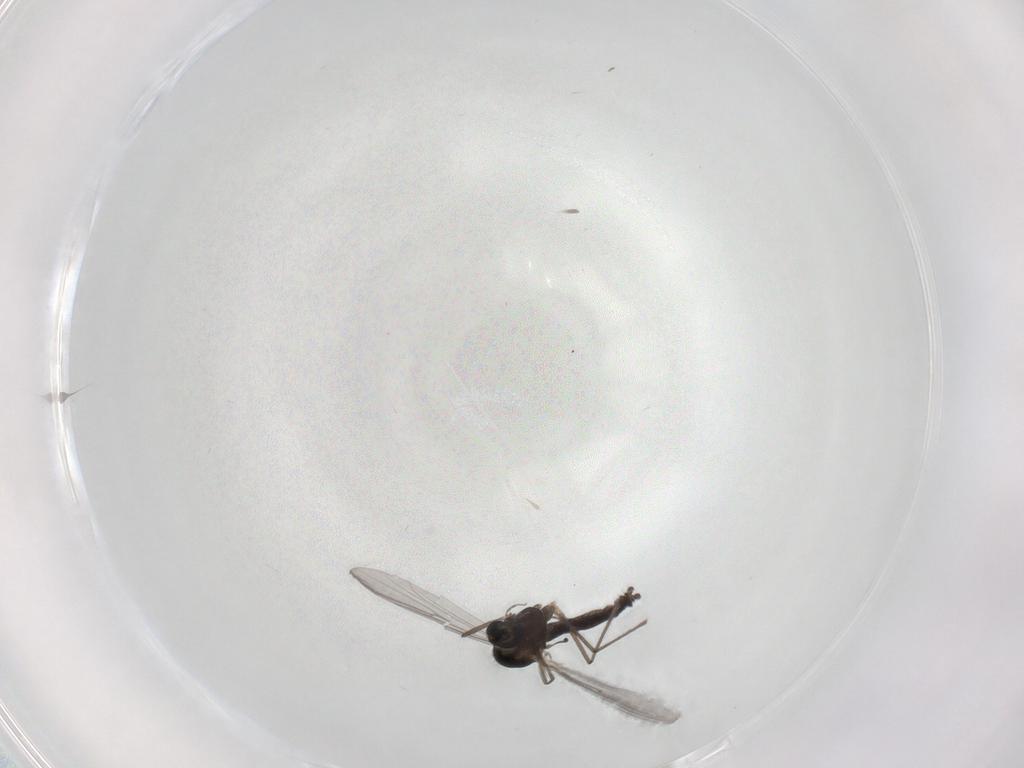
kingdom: Animalia
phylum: Arthropoda
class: Insecta
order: Diptera
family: Chironomidae
